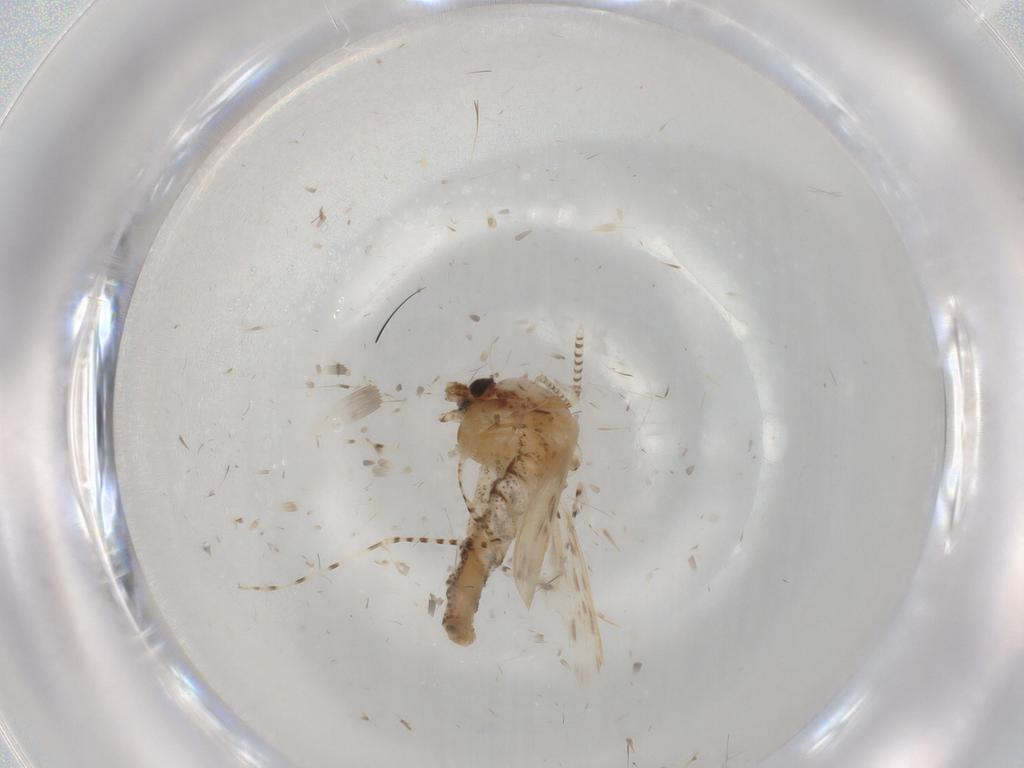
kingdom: Animalia
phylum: Arthropoda
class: Insecta
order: Diptera
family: Chaoboridae
